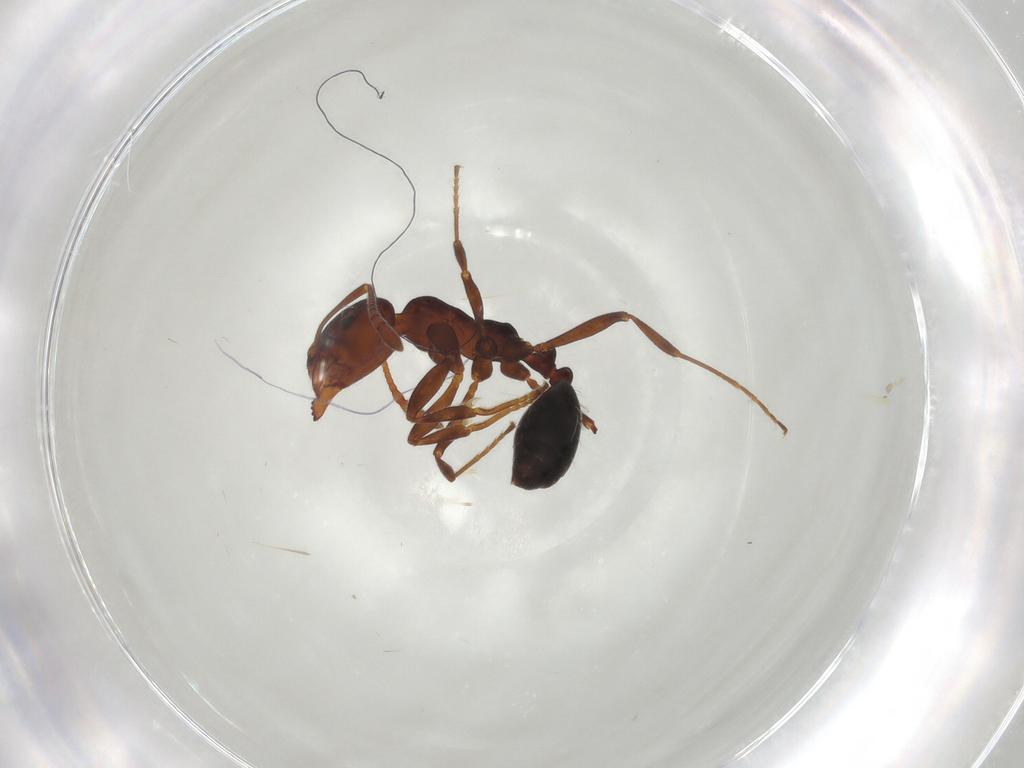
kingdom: Animalia
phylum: Arthropoda
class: Insecta
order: Hymenoptera
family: Formicidae
